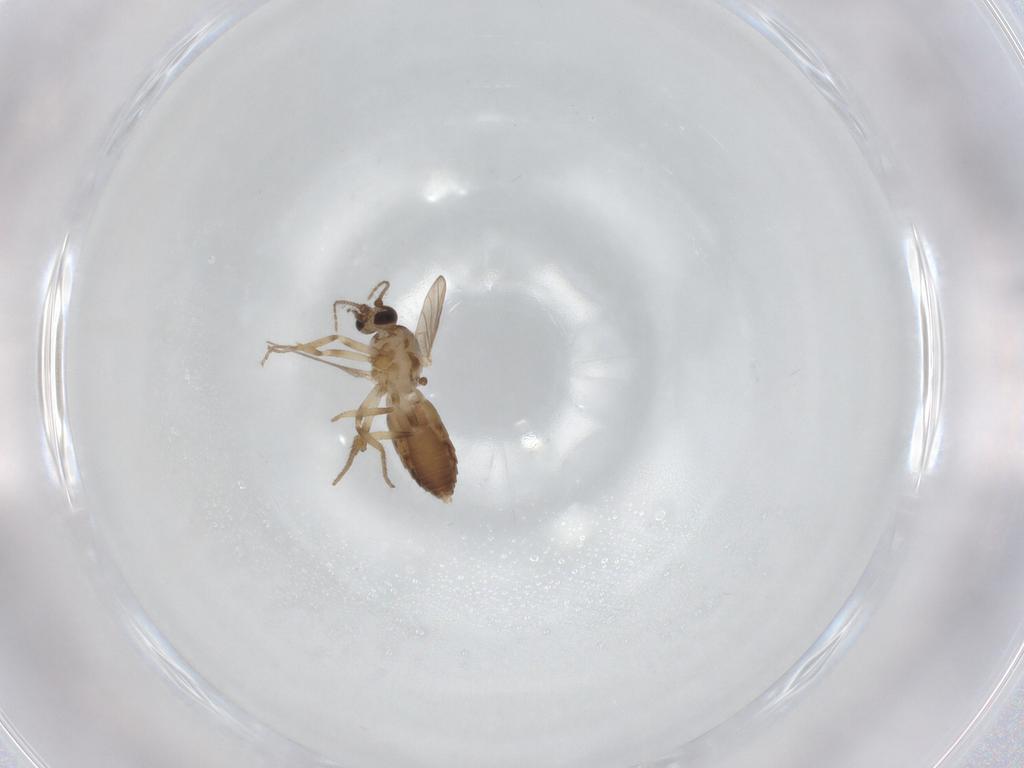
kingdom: Animalia
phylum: Arthropoda
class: Insecta
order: Diptera
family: Ceratopogonidae
